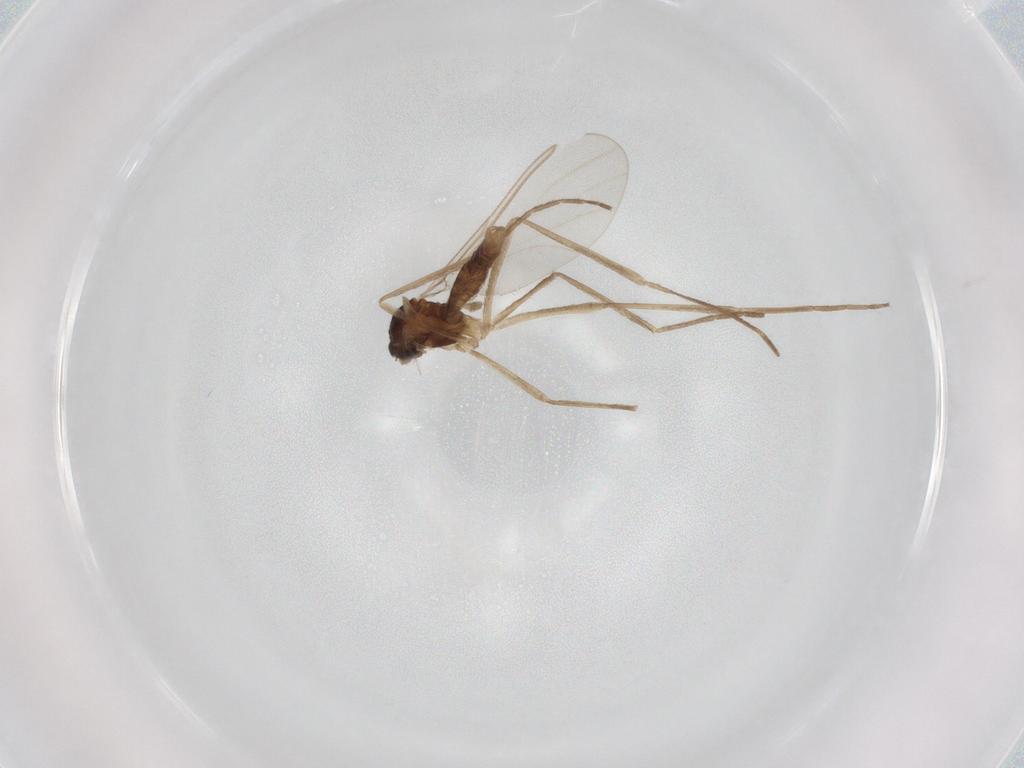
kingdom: Animalia
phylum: Arthropoda
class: Insecta
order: Diptera
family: Cecidomyiidae
